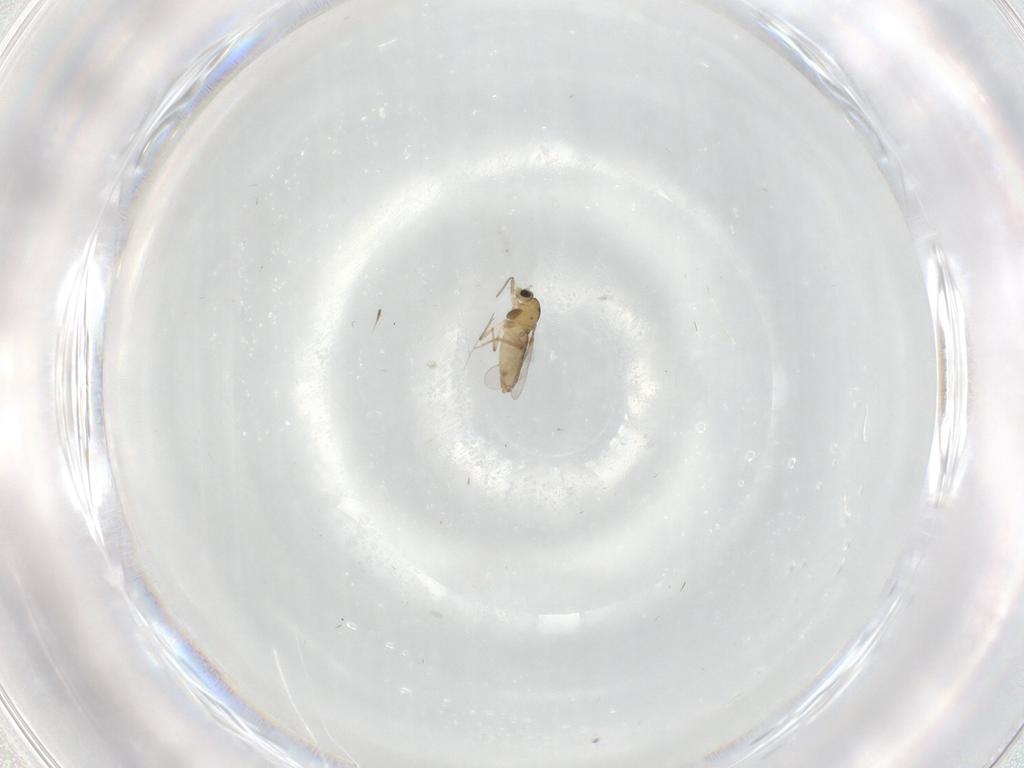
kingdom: Animalia
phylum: Arthropoda
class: Insecta
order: Diptera
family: Chironomidae
